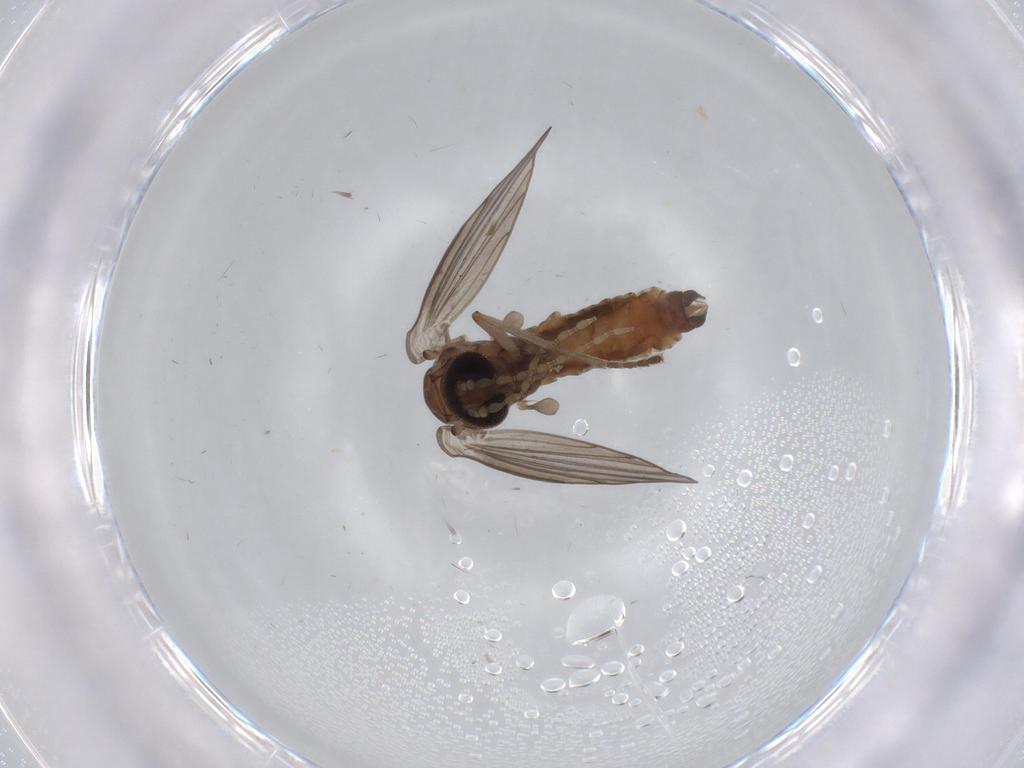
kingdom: Animalia
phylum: Arthropoda
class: Insecta
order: Diptera
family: Psychodidae
